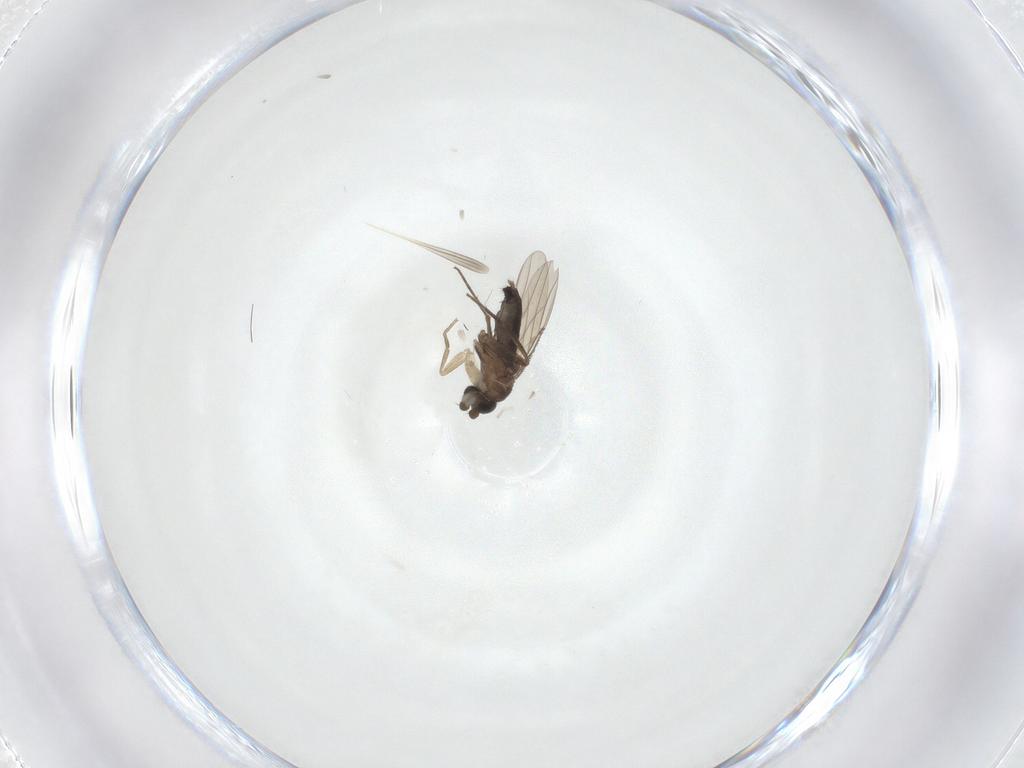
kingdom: Animalia
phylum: Arthropoda
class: Insecta
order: Diptera
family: Phoridae
